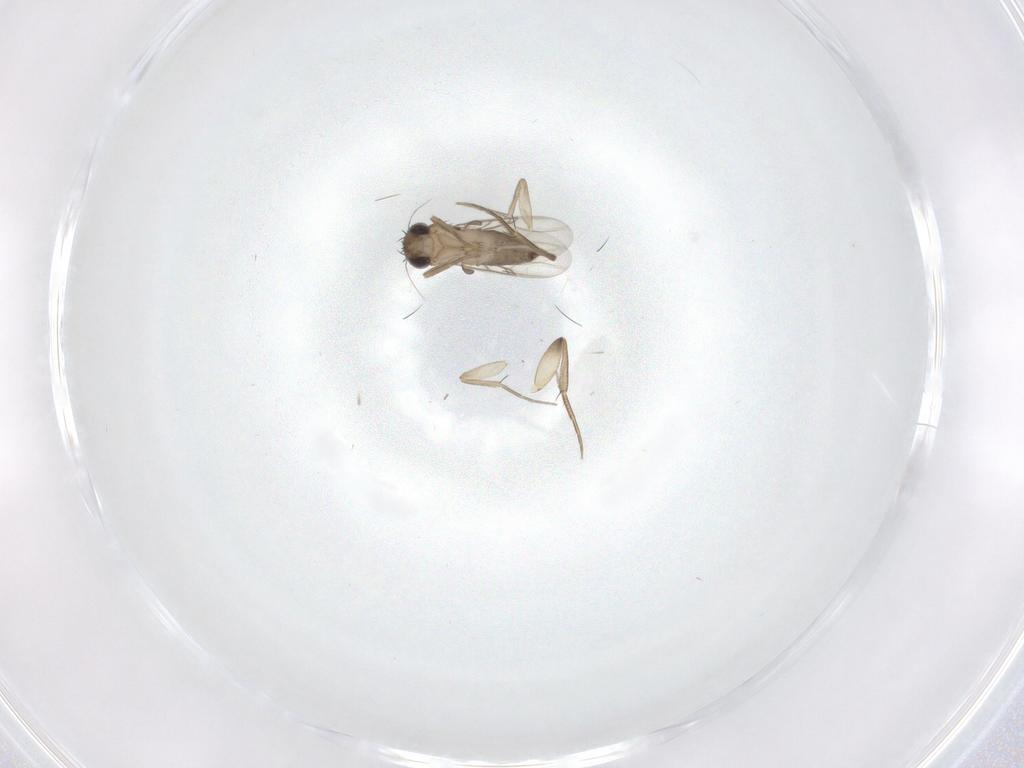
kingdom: Animalia
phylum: Arthropoda
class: Insecta
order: Diptera
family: Phoridae
